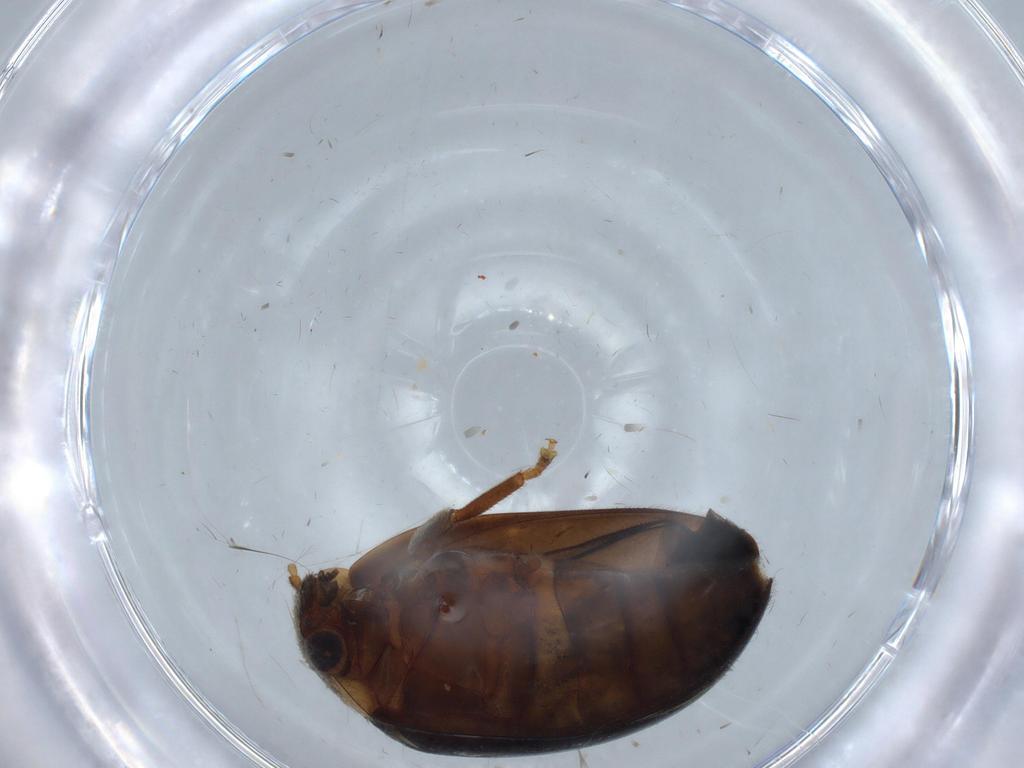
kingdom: Animalia
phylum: Arthropoda
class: Insecta
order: Coleoptera
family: Scirtidae
